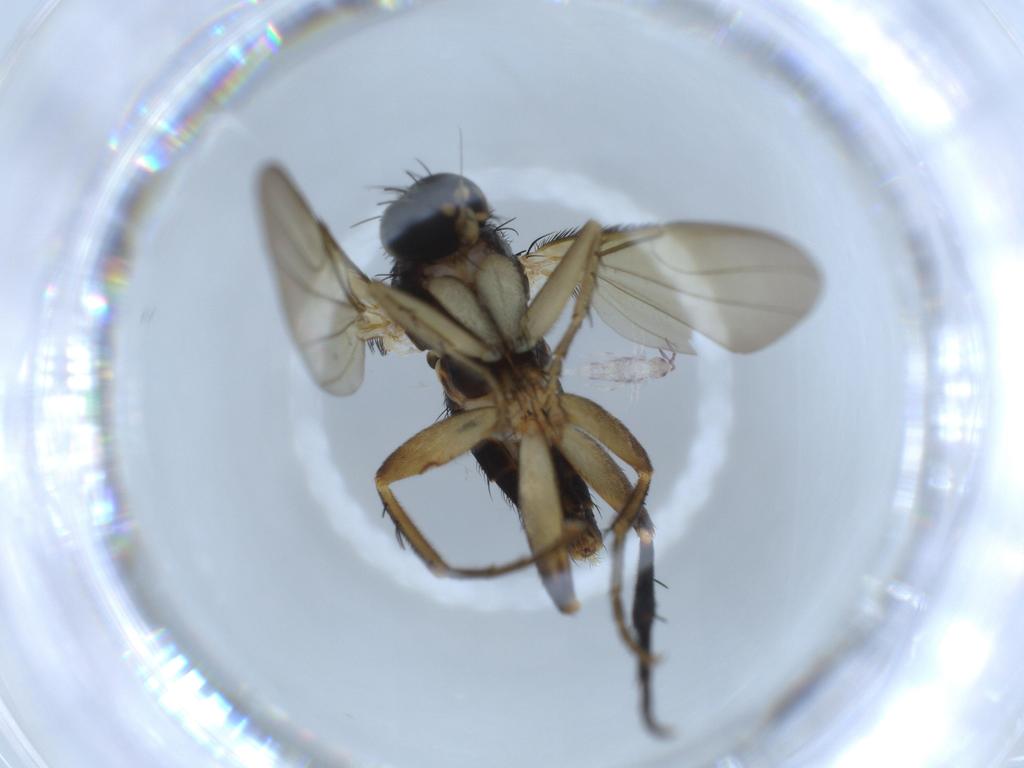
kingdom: Animalia
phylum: Arthropoda
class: Insecta
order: Diptera
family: Phoridae
